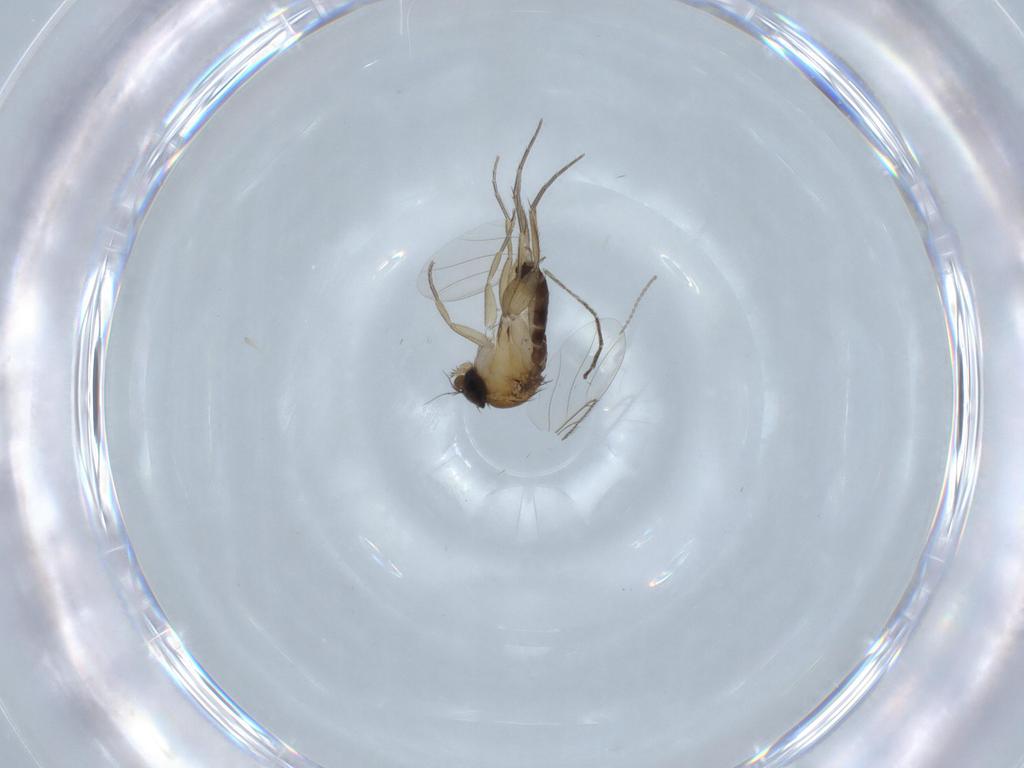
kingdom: Animalia
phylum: Arthropoda
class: Insecta
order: Diptera
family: Phoridae
